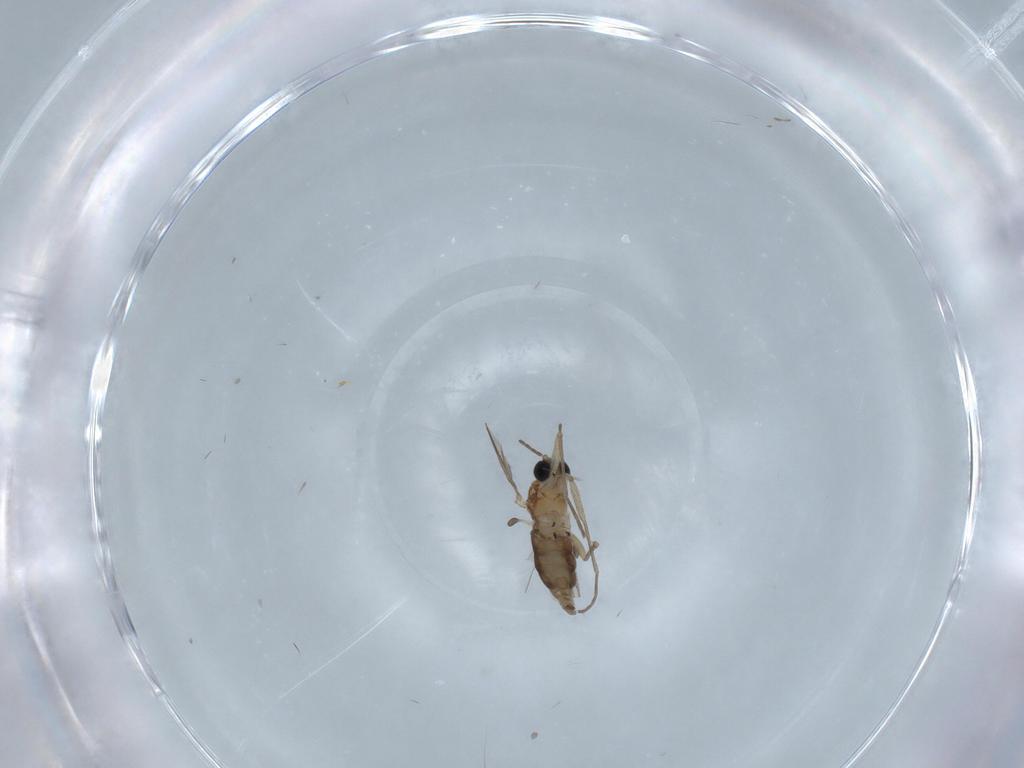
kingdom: Animalia
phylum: Arthropoda
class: Insecta
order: Diptera
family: Sciaridae
